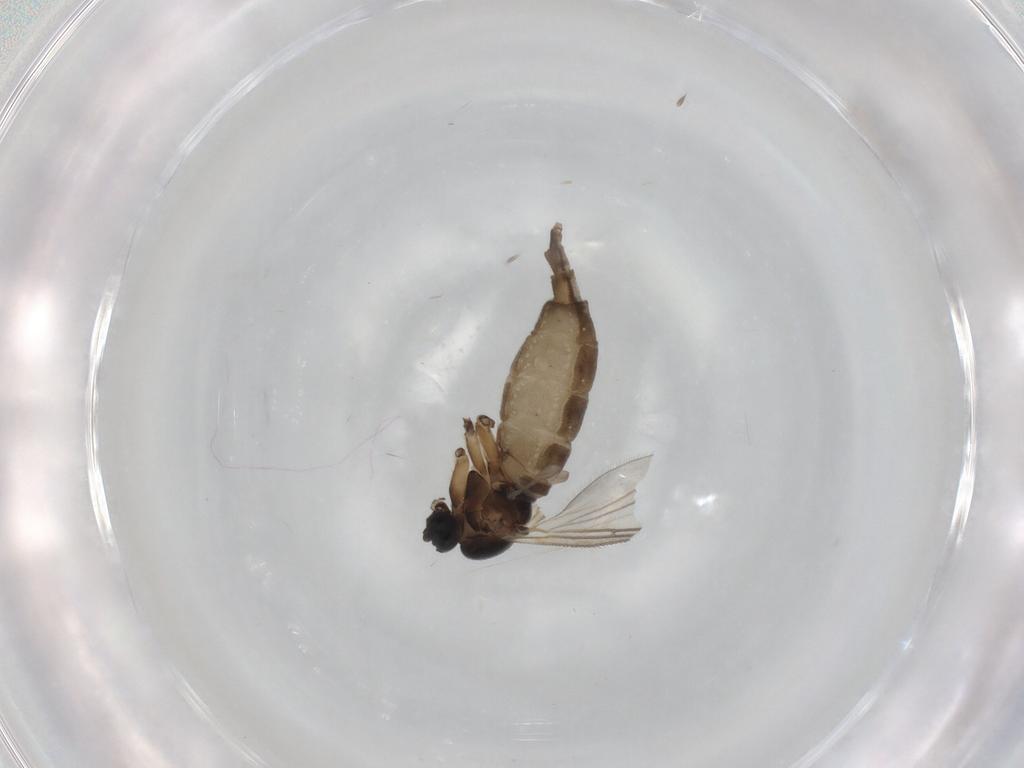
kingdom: Animalia
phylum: Arthropoda
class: Insecta
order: Diptera
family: Sciaridae
